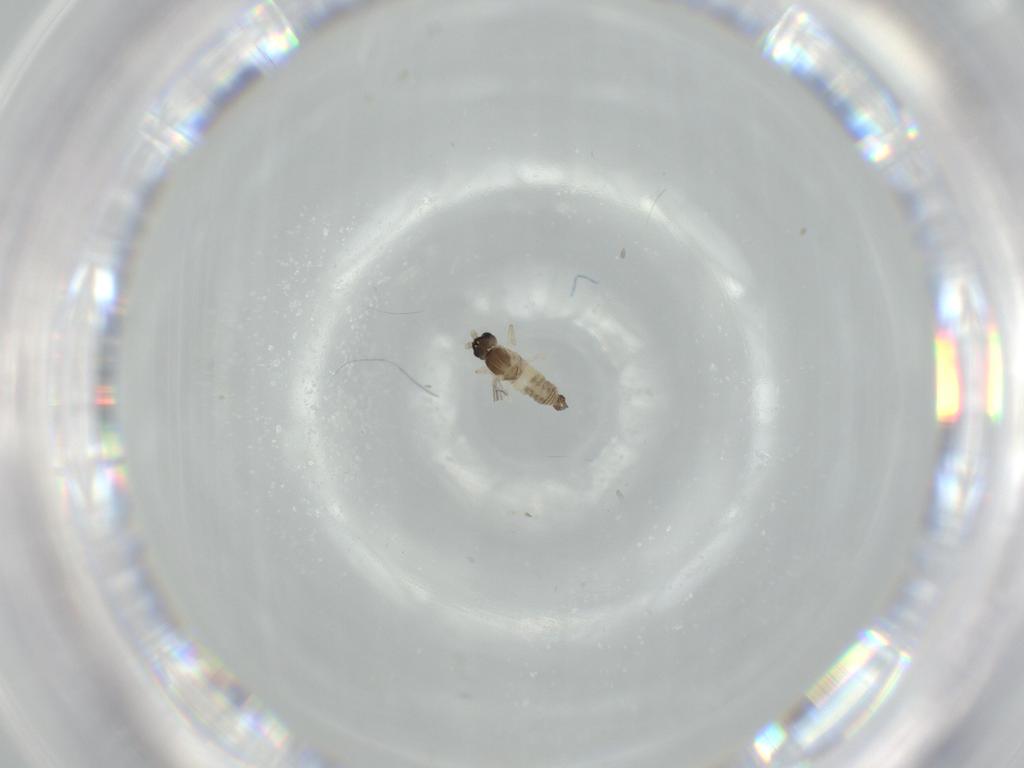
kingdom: Animalia
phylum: Arthropoda
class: Insecta
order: Diptera
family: Cecidomyiidae
